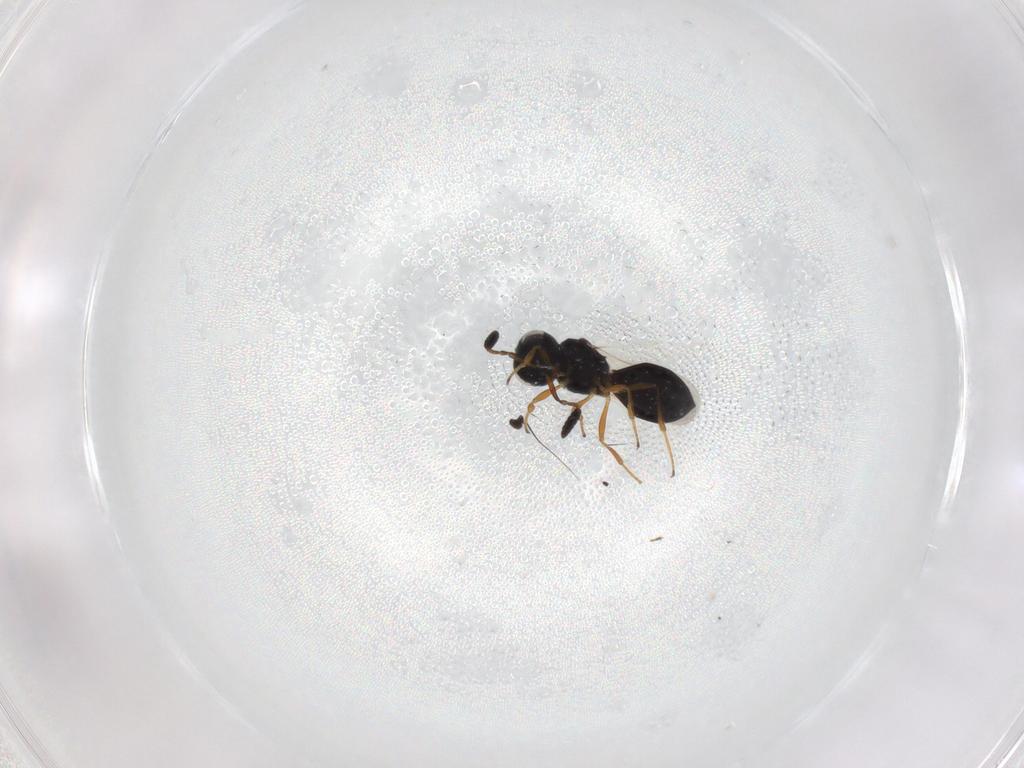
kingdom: Animalia
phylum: Arthropoda
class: Insecta
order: Hymenoptera
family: Scelionidae
